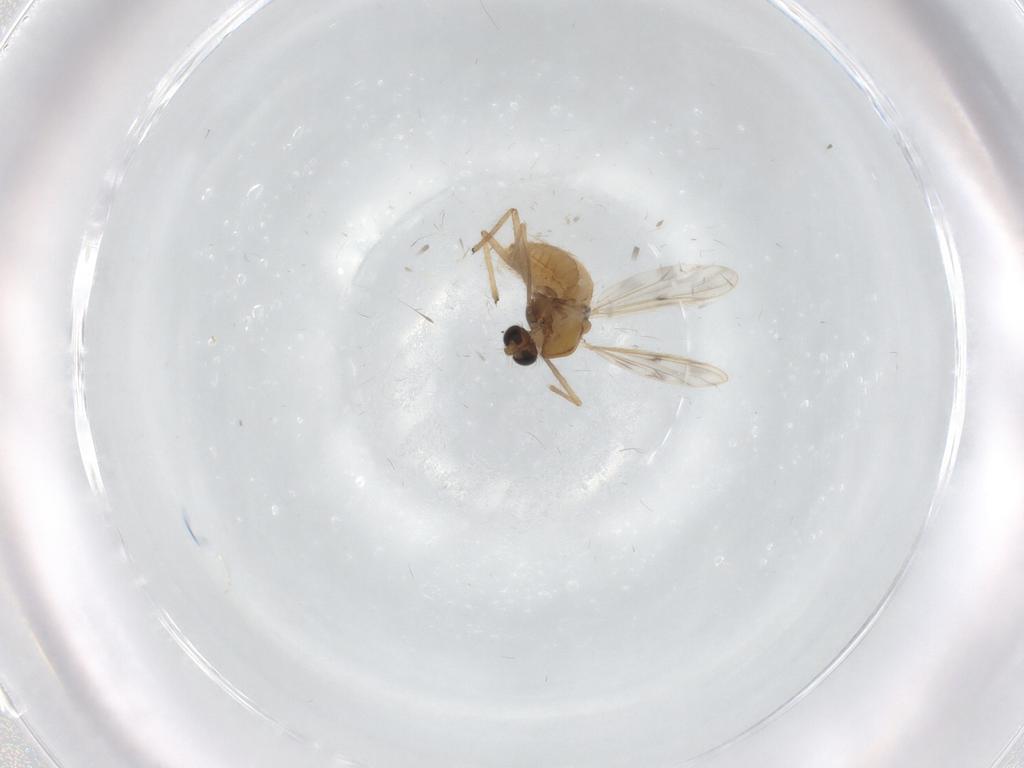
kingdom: Animalia
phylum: Arthropoda
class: Insecta
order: Diptera
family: Chironomidae
